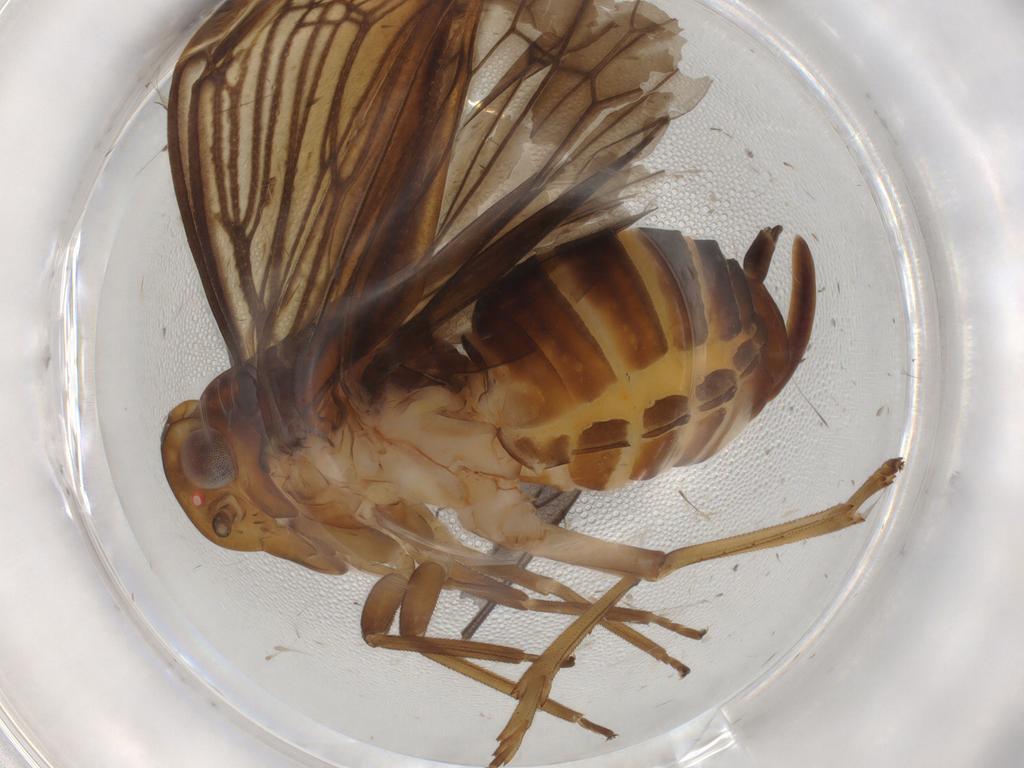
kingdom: Animalia
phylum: Arthropoda
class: Insecta
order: Hemiptera
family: Cixiidae
